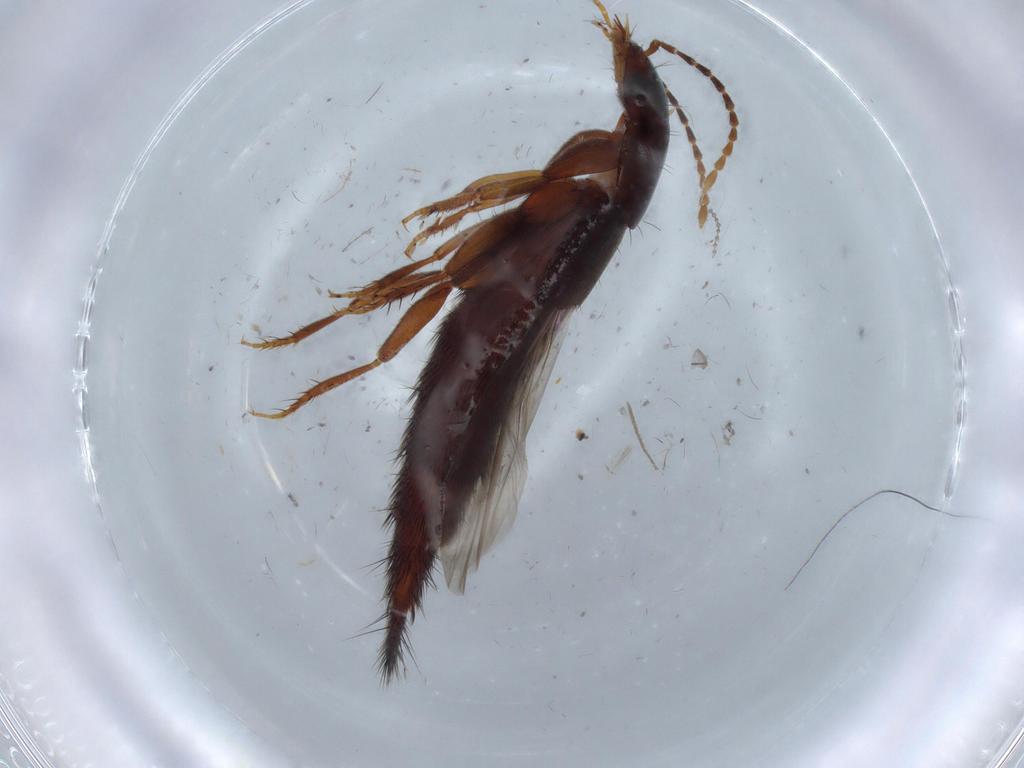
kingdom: Animalia
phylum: Arthropoda
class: Insecta
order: Coleoptera
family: Staphylinidae
